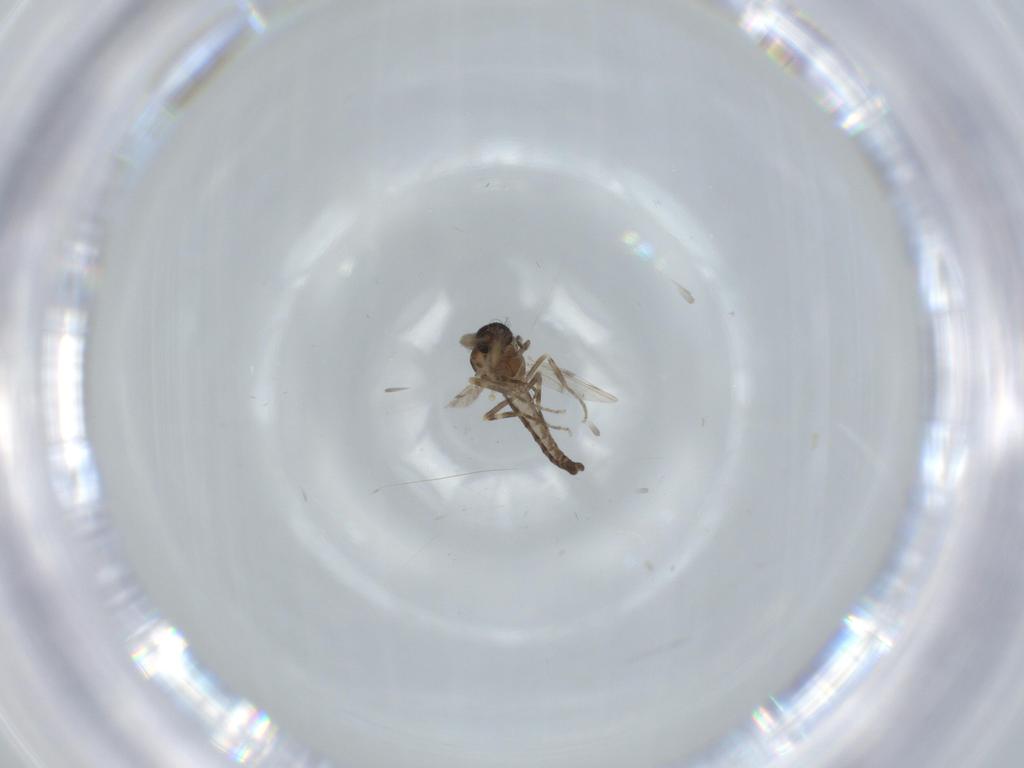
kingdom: Animalia
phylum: Arthropoda
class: Insecta
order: Diptera
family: Ceratopogonidae
